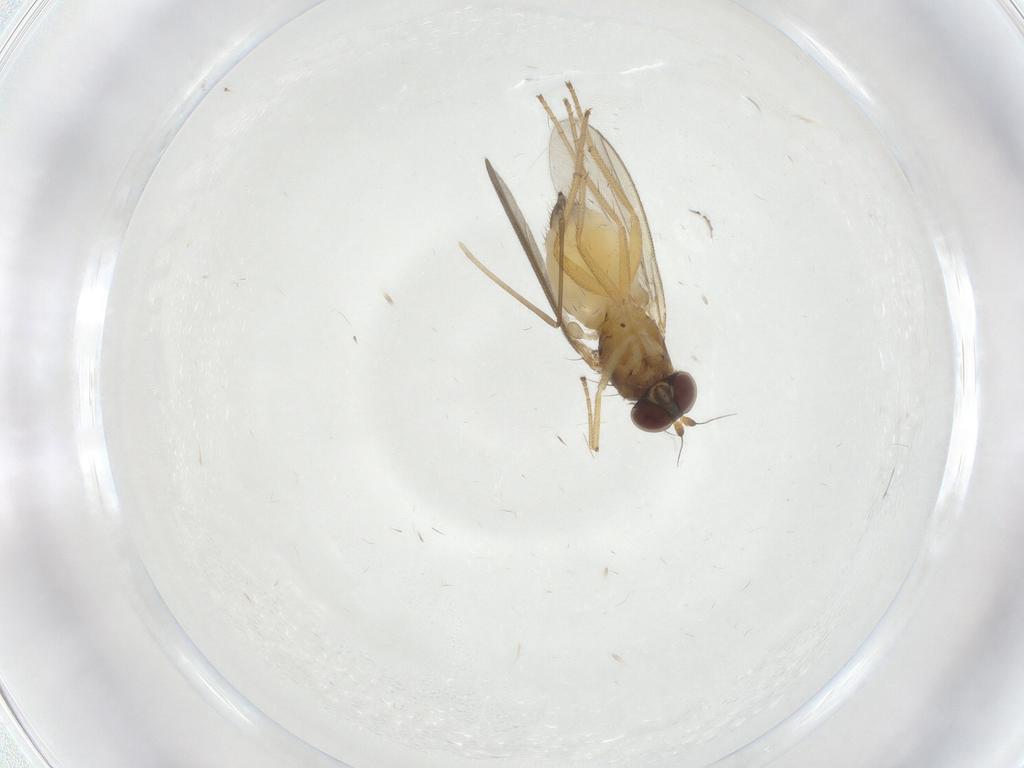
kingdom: Animalia
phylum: Arthropoda
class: Insecta
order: Diptera
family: Cecidomyiidae
